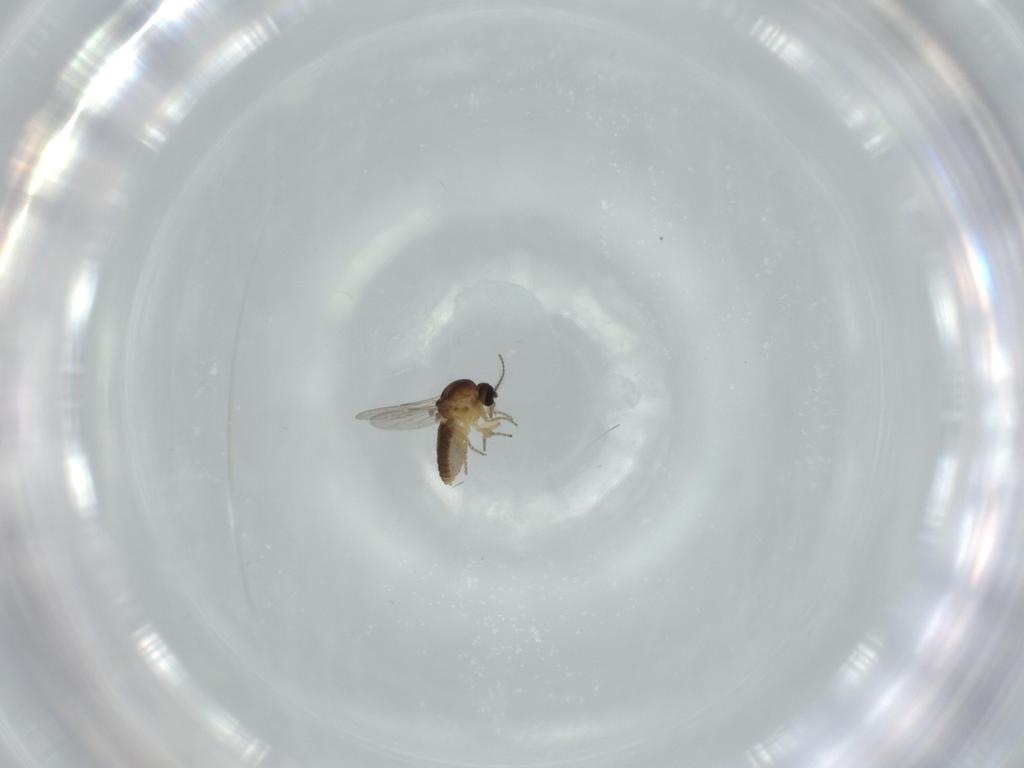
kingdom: Animalia
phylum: Arthropoda
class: Insecta
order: Diptera
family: Ceratopogonidae
